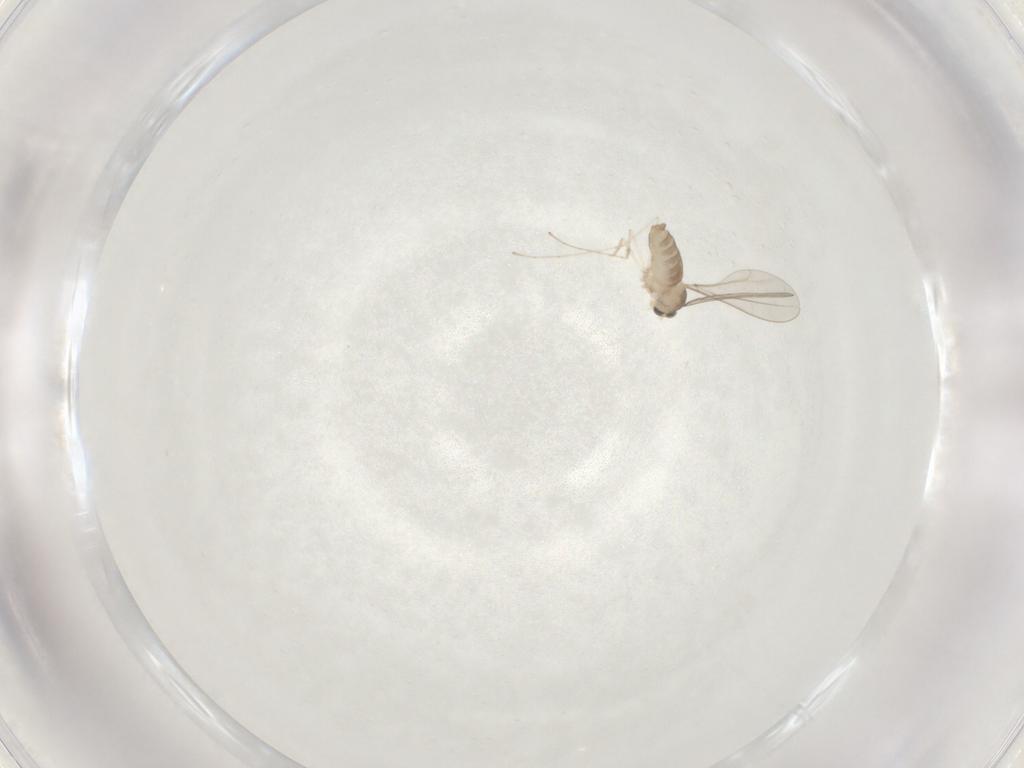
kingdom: Animalia
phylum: Arthropoda
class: Insecta
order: Diptera
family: Cecidomyiidae
